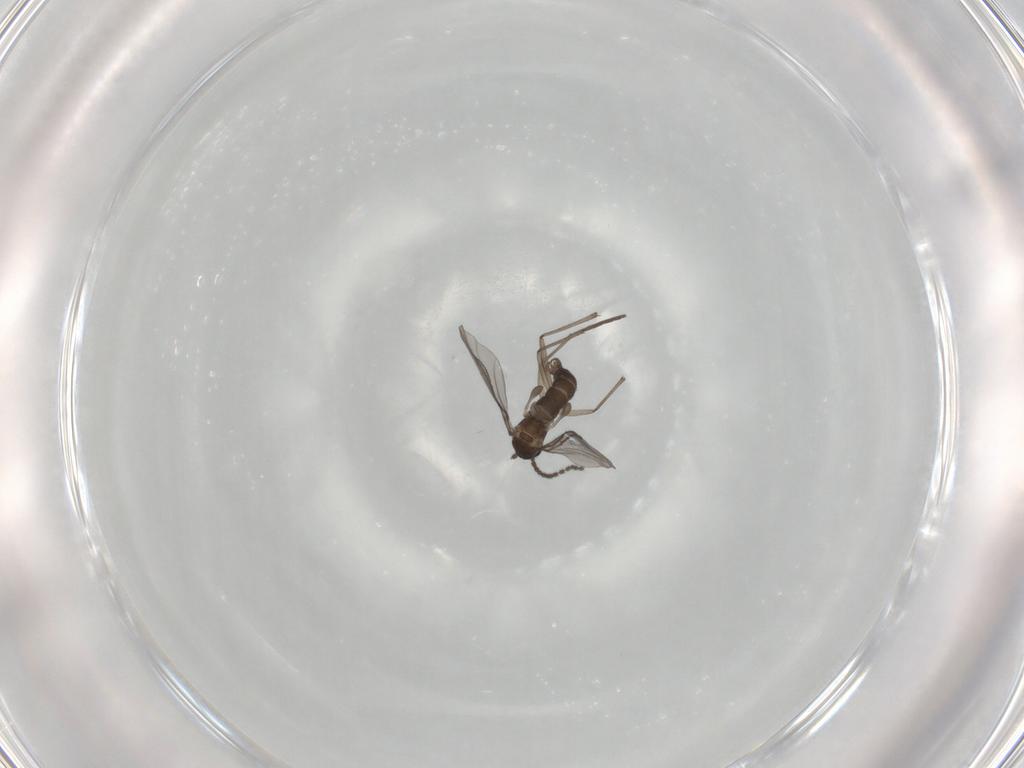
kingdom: Animalia
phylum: Arthropoda
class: Insecta
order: Diptera
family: Sciaridae
